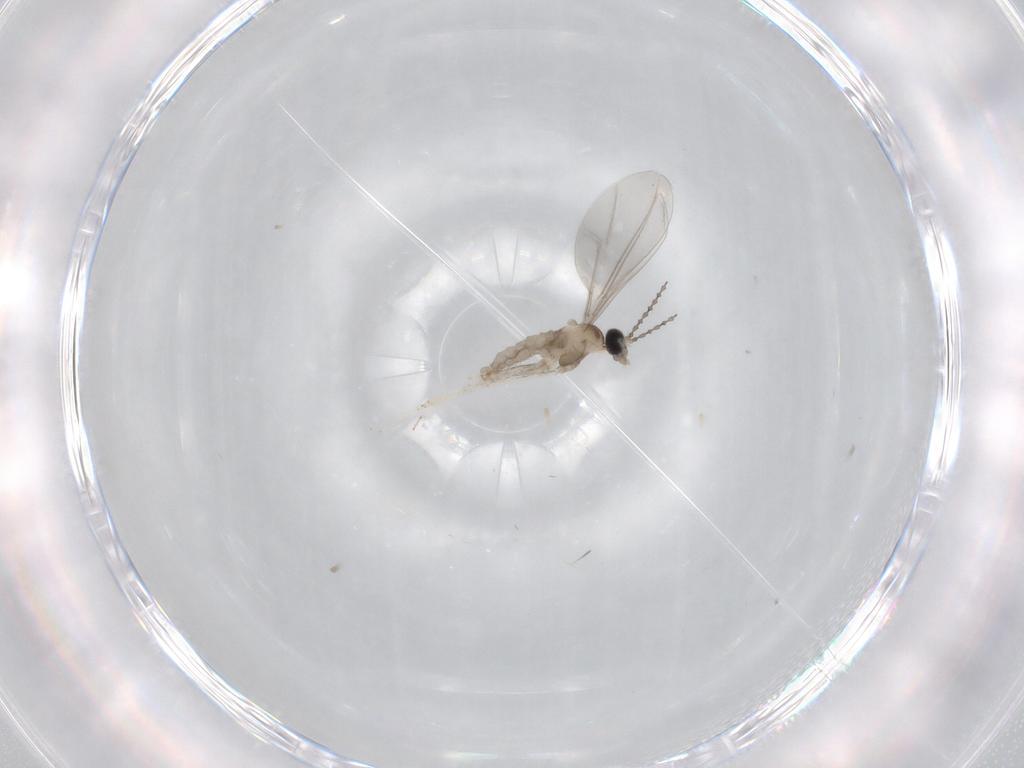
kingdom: Animalia
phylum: Arthropoda
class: Insecta
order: Diptera
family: Cecidomyiidae
